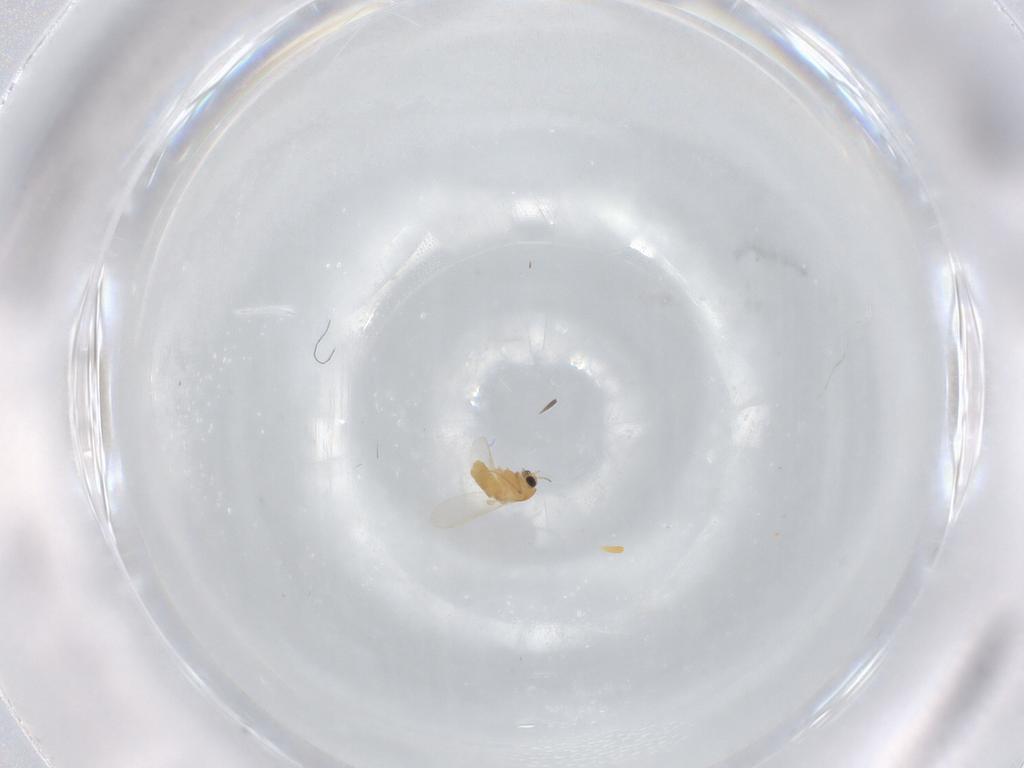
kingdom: Animalia
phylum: Arthropoda
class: Insecta
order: Diptera
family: Chironomidae
